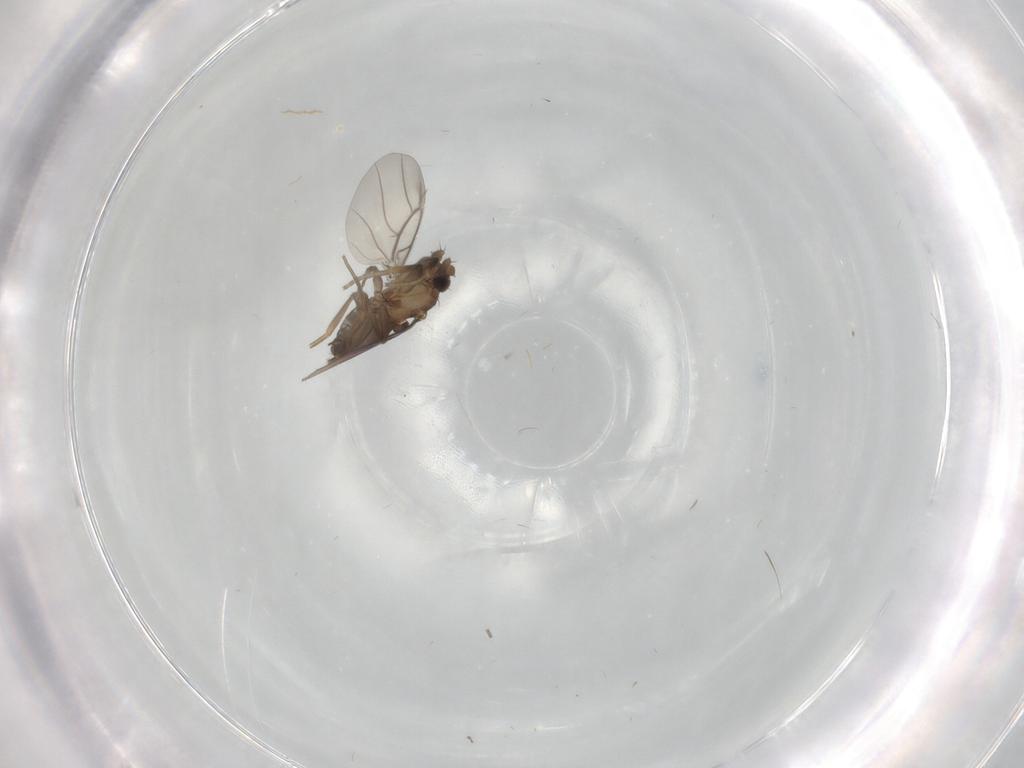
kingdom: Animalia
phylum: Arthropoda
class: Insecta
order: Diptera
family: Phoridae
